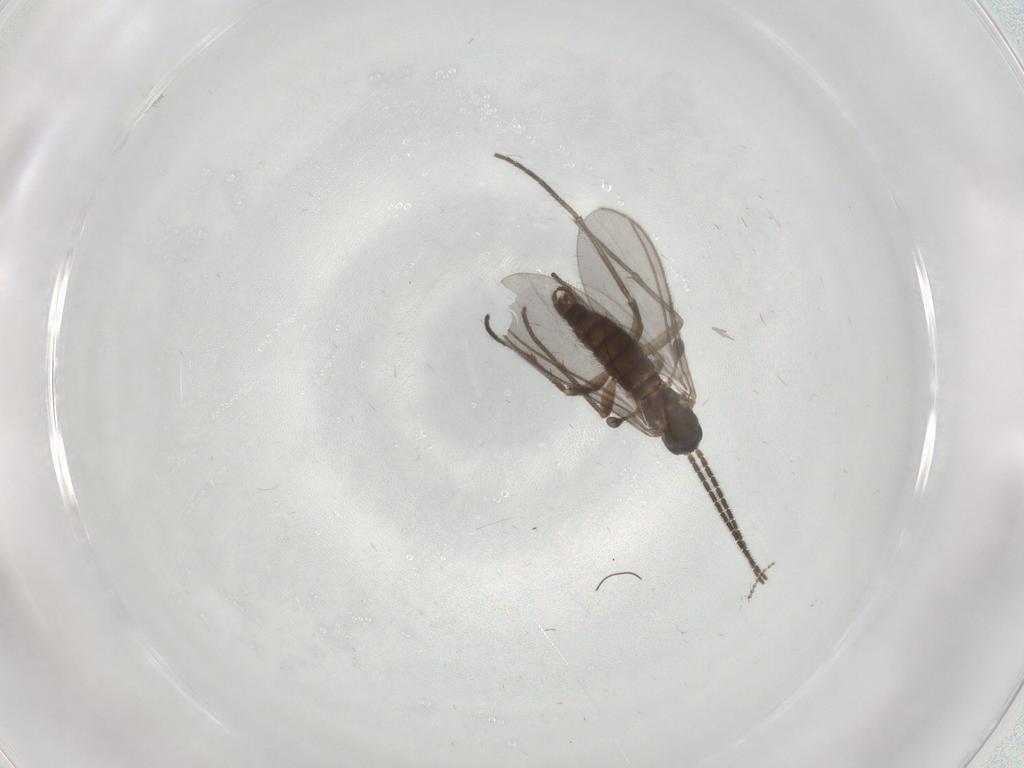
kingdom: Animalia
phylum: Arthropoda
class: Insecta
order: Diptera
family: Sciaridae
